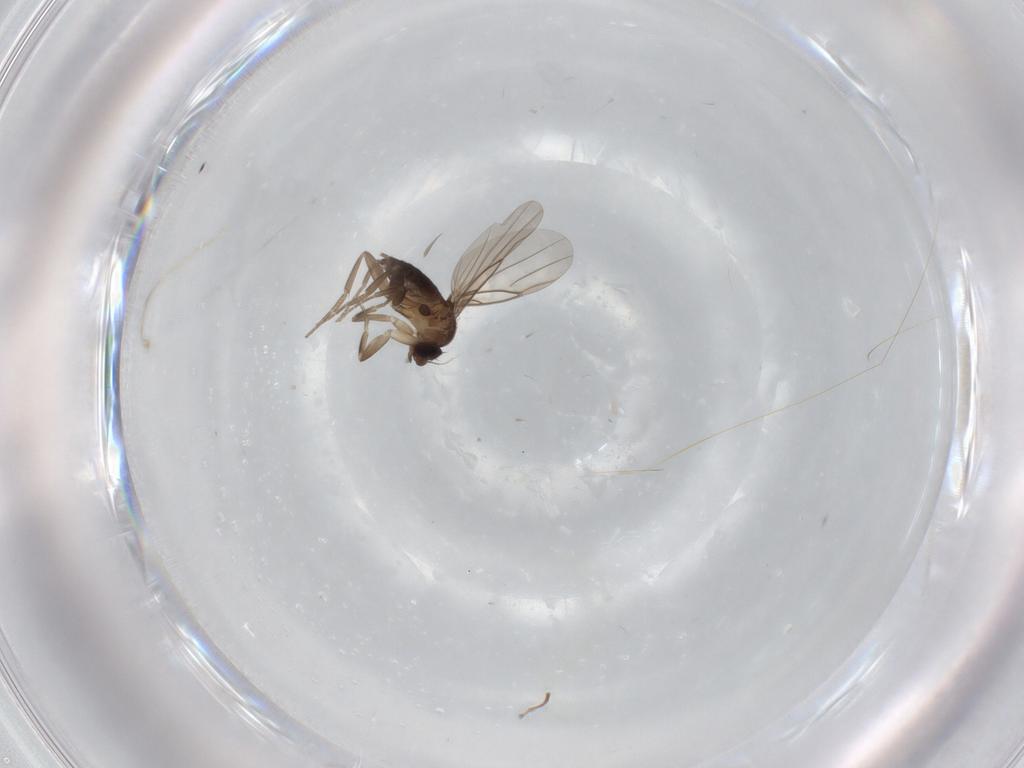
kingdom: Animalia
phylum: Arthropoda
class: Insecta
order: Diptera
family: Phoridae
